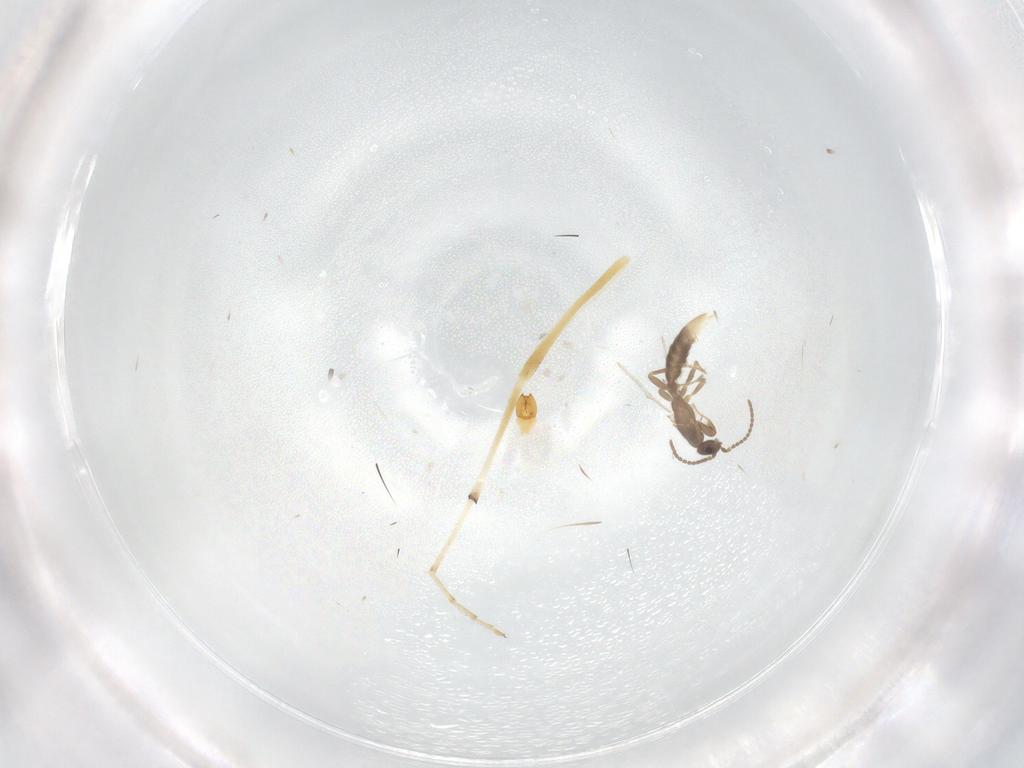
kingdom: Animalia
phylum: Arthropoda
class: Insecta
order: Hymenoptera
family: Formicidae
